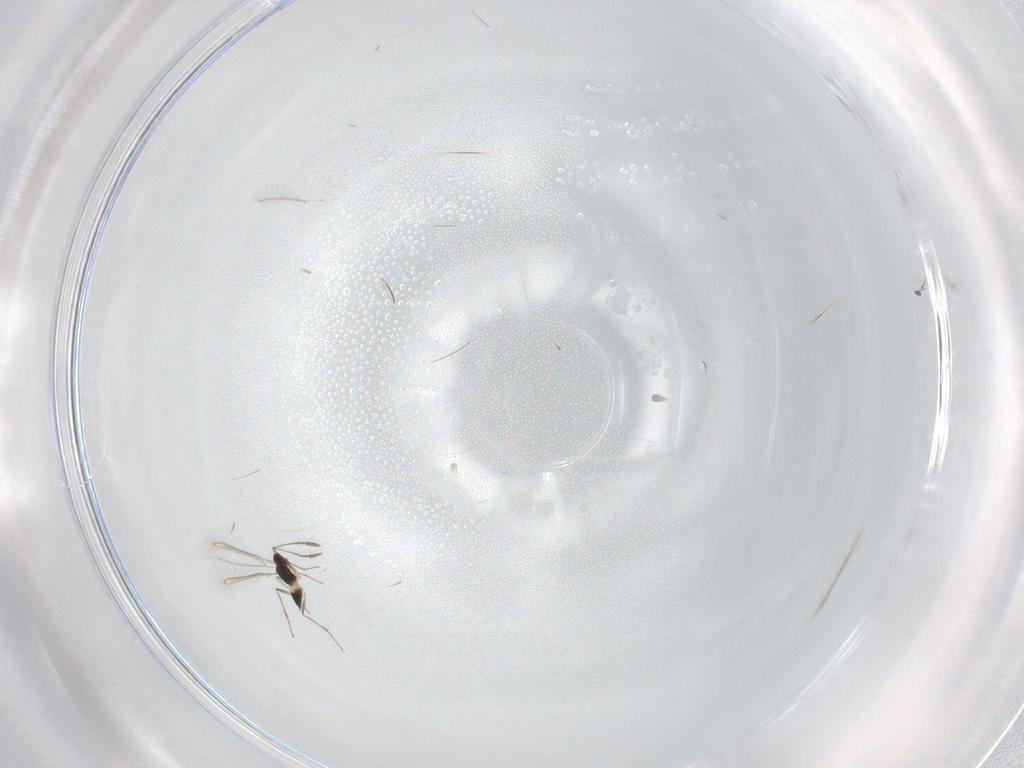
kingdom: Animalia
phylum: Arthropoda
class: Insecta
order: Hymenoptera
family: Mymaridae
